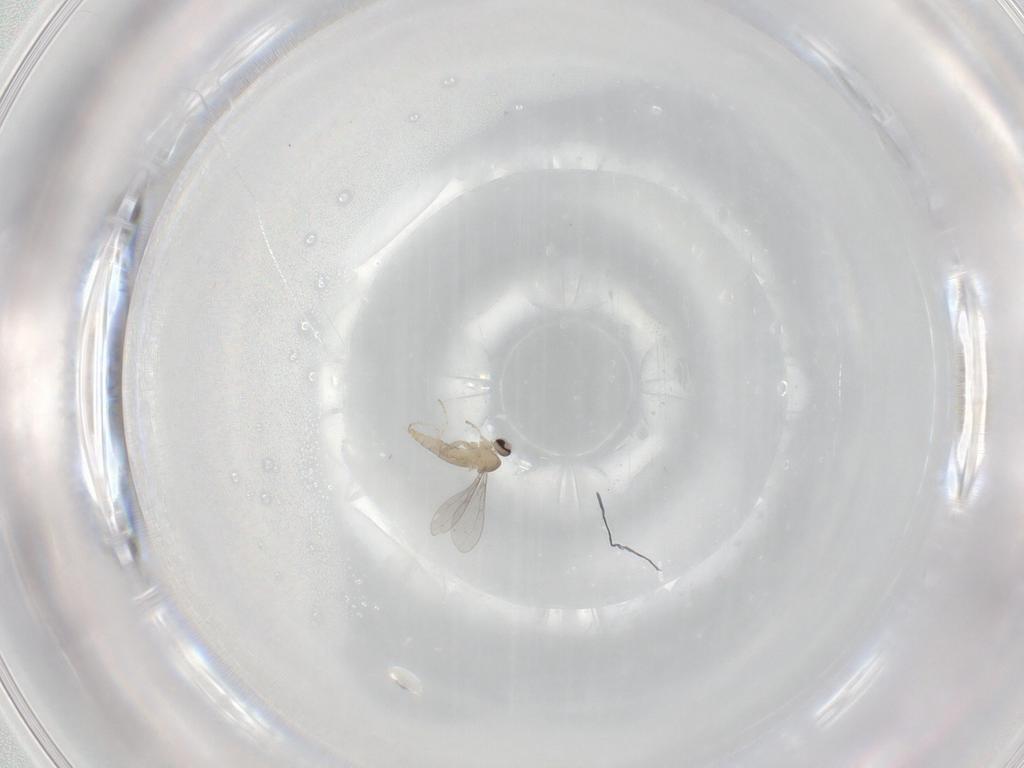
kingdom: Animalia
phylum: Arthropoda
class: Insecta
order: Diptera
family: Cecidomyiidae
